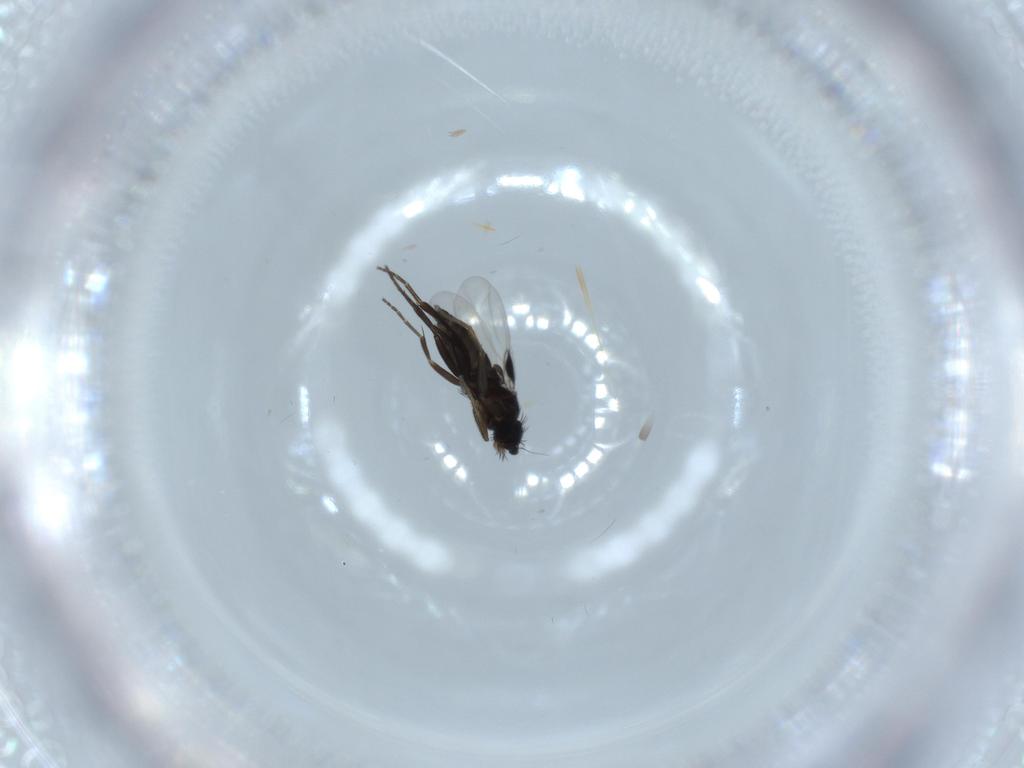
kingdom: Animalia
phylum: Arthropoda
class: Insecta
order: Diptera
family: Phoridae
